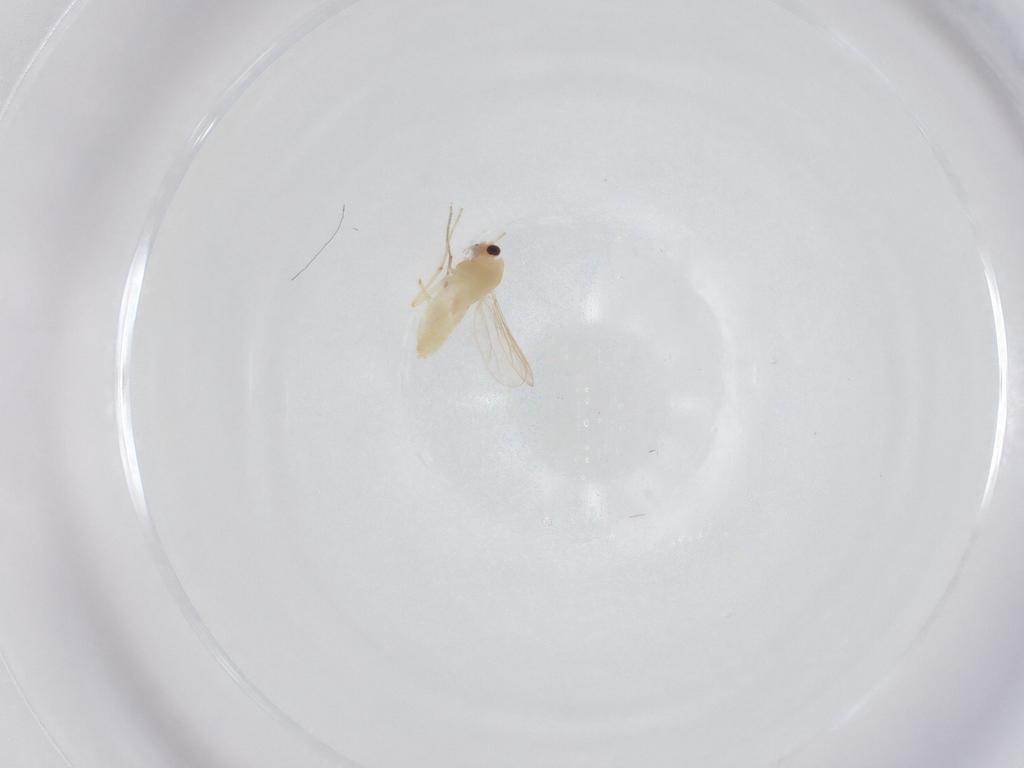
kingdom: Animalia
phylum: Arthropoda
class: Insecta
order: Diptera
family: Chironomidae
